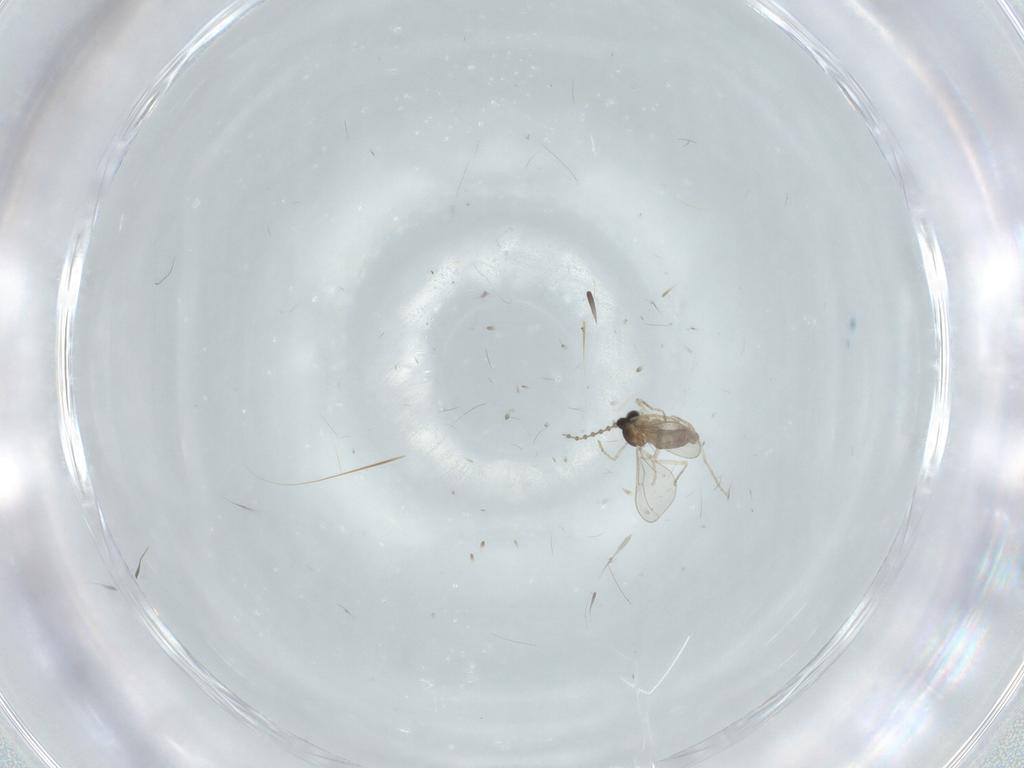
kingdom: Animalia
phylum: Arthropoda
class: Insecta
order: Diptera
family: Cecidomyiidae
